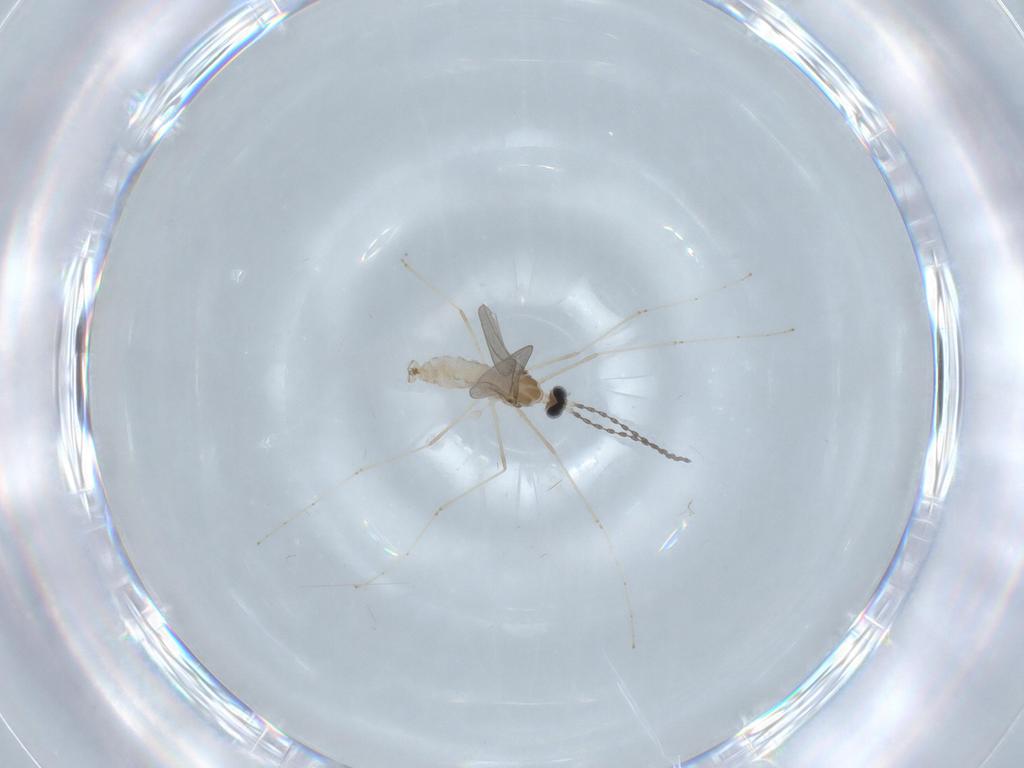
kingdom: Animalia
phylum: Arthropoda
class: Insecta
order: Diptera
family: Cecidomyiidae
